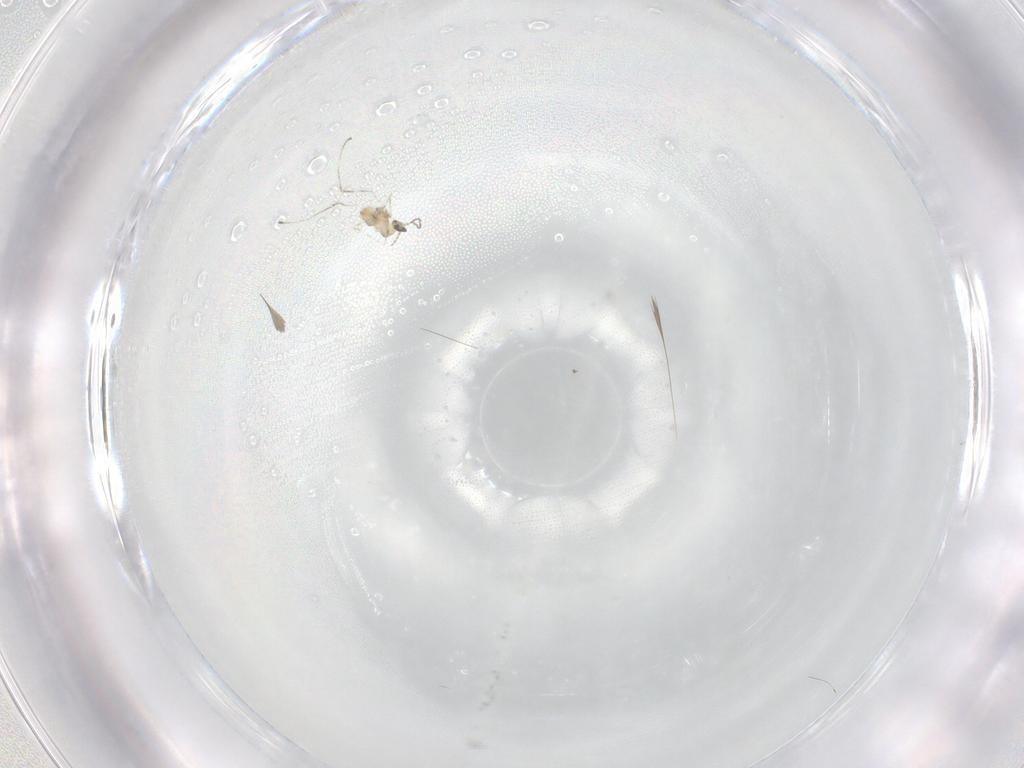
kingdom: Animalia
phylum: Arthropoda
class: Insecta
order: Diptera
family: Cecidomyiidae
